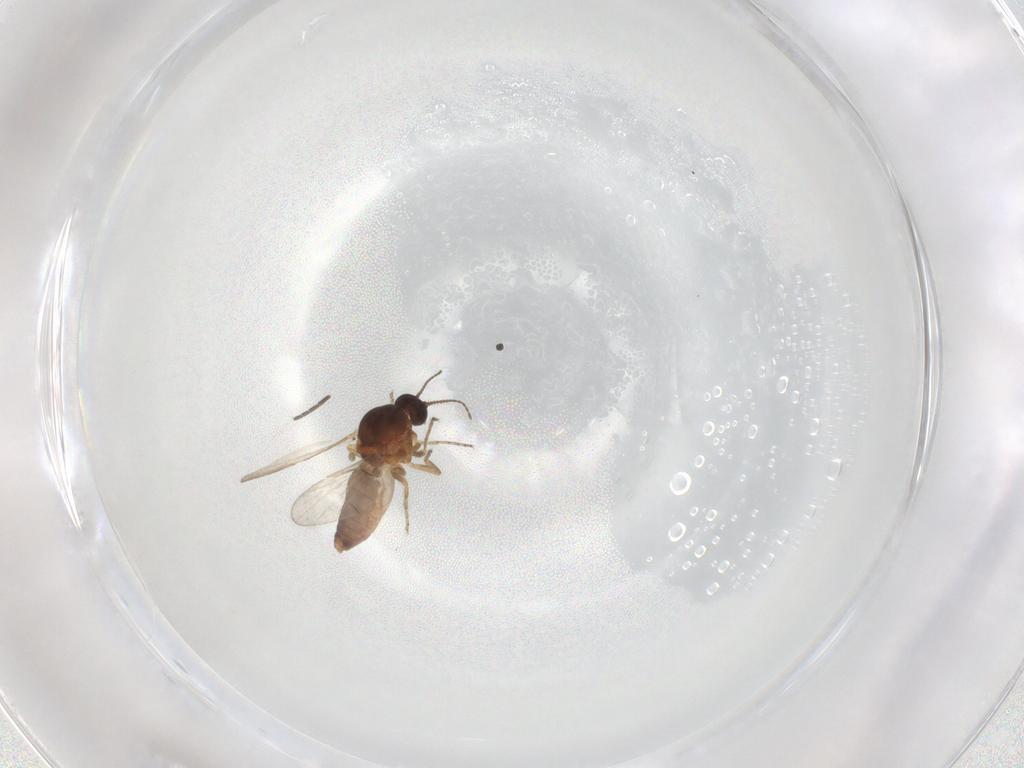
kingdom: Animalia
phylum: Arthropoda
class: Insecta
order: Diptera
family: Ceratopogonidae
